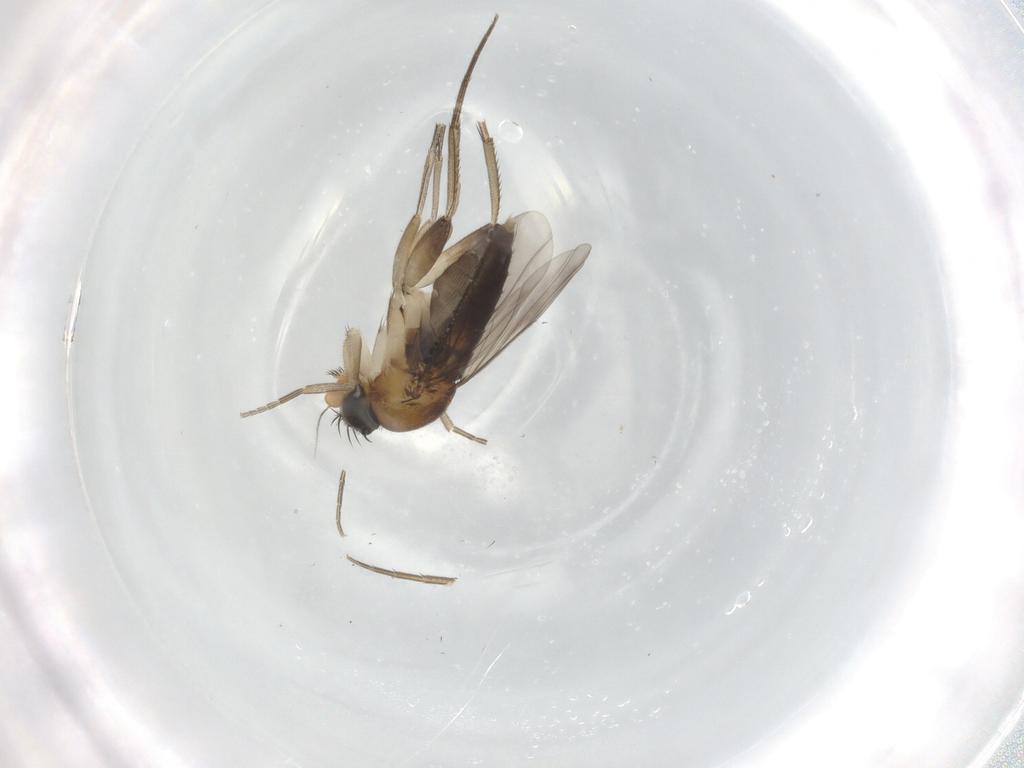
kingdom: Animalia
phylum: Arthropoda
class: Insecta
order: Diptera
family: Phoridae
